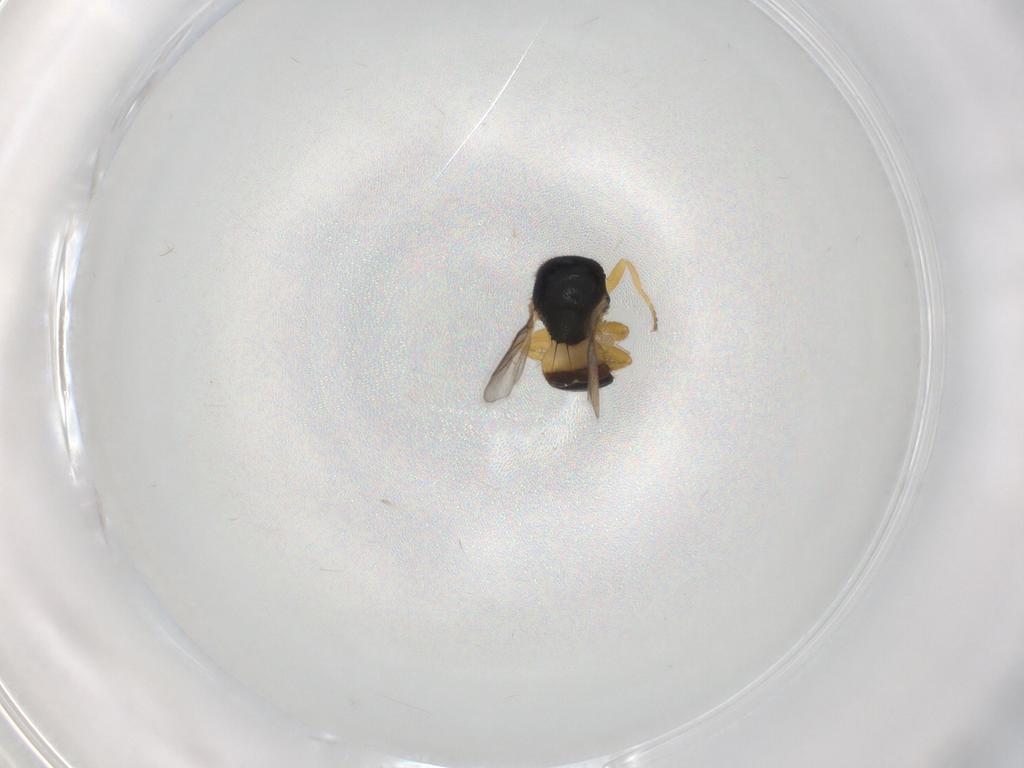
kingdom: Animalia
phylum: Arthropoda
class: Insecta
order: Diptera
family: Chloropidae
